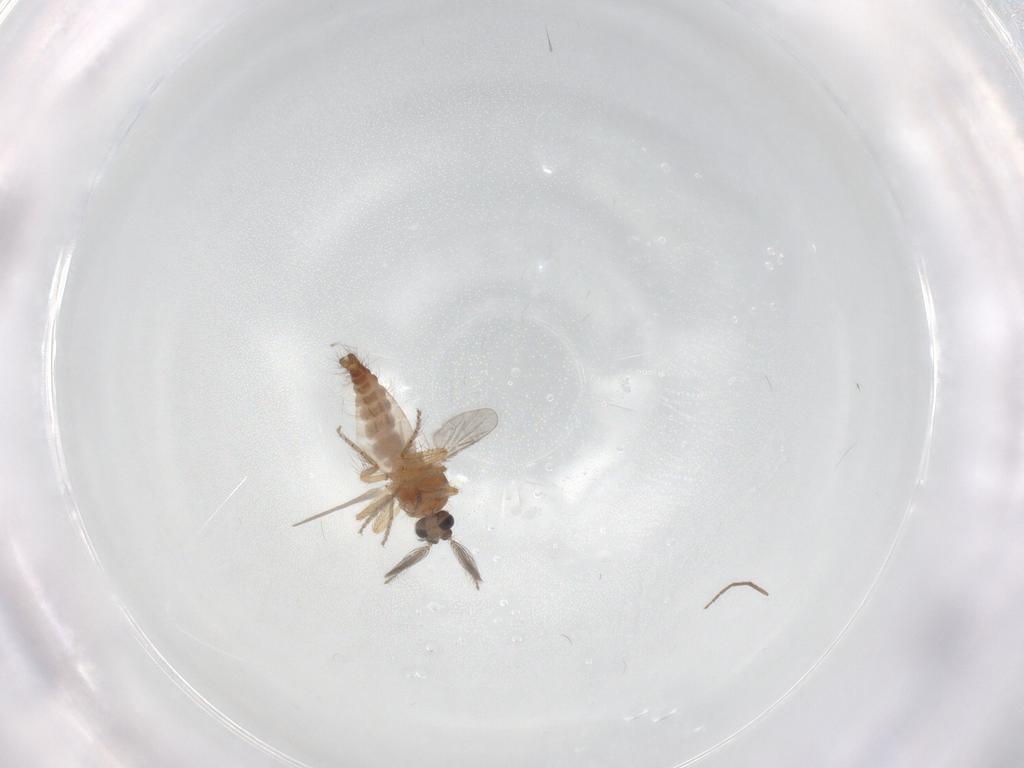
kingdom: Animalia
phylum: Arthropoda
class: Insecta
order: Diptera
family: Ceratopogonidae
